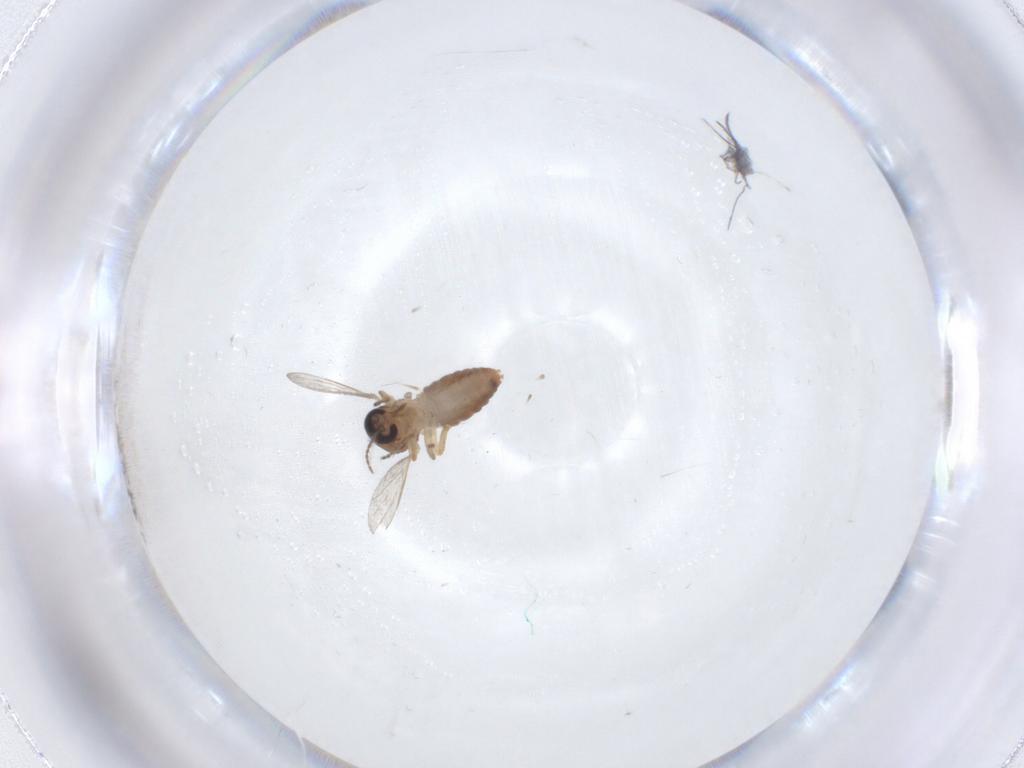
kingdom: Animalia
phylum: Arthropoda
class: Insecta
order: Diptera
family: Ceratopogonidae
